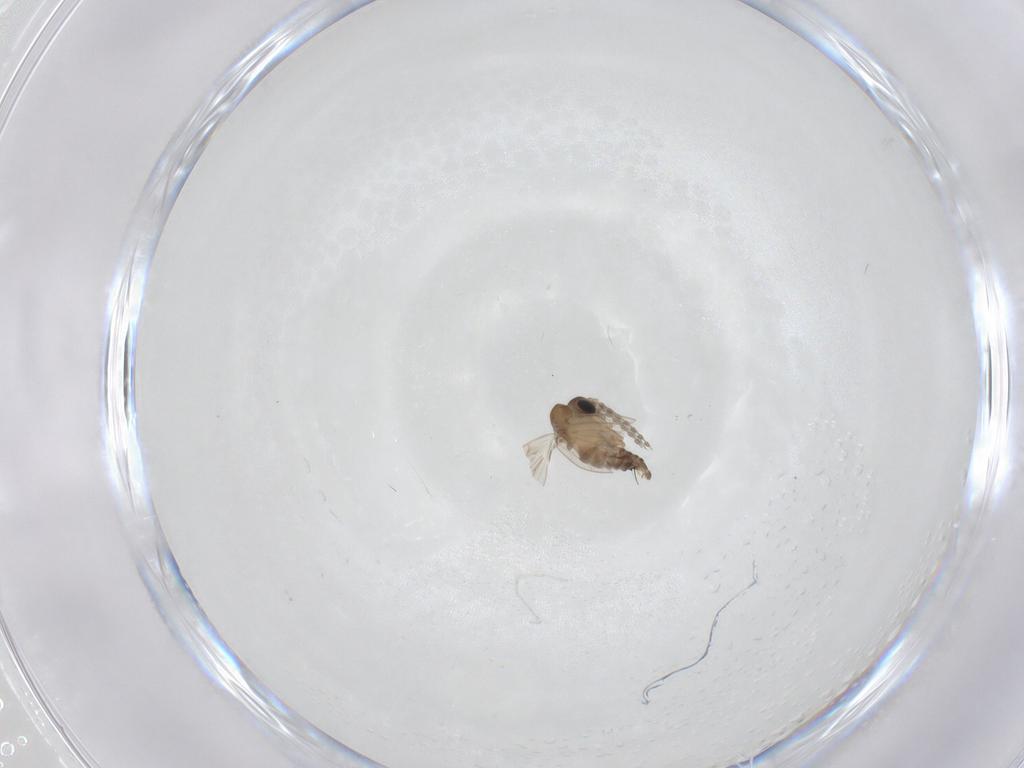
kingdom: Animalia
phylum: Arthropoda
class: Insecta
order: Diptera
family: Psychodidae
